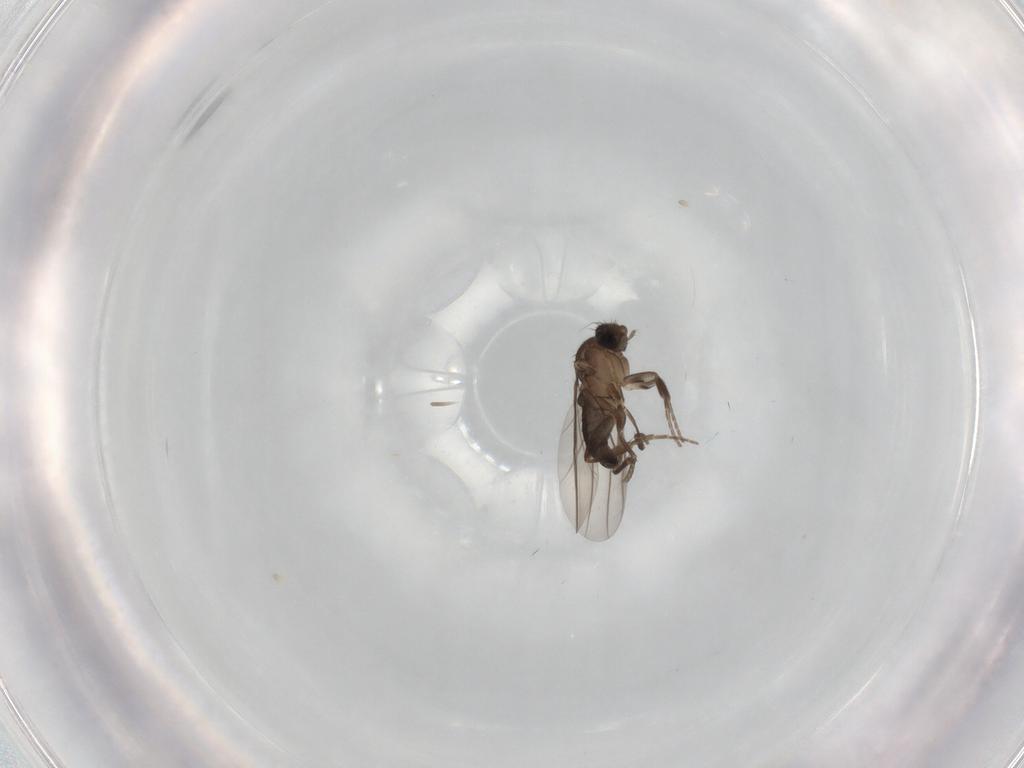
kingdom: Animalia
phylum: Arthropoda
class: Insecta
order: Diptera
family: Phoridae
